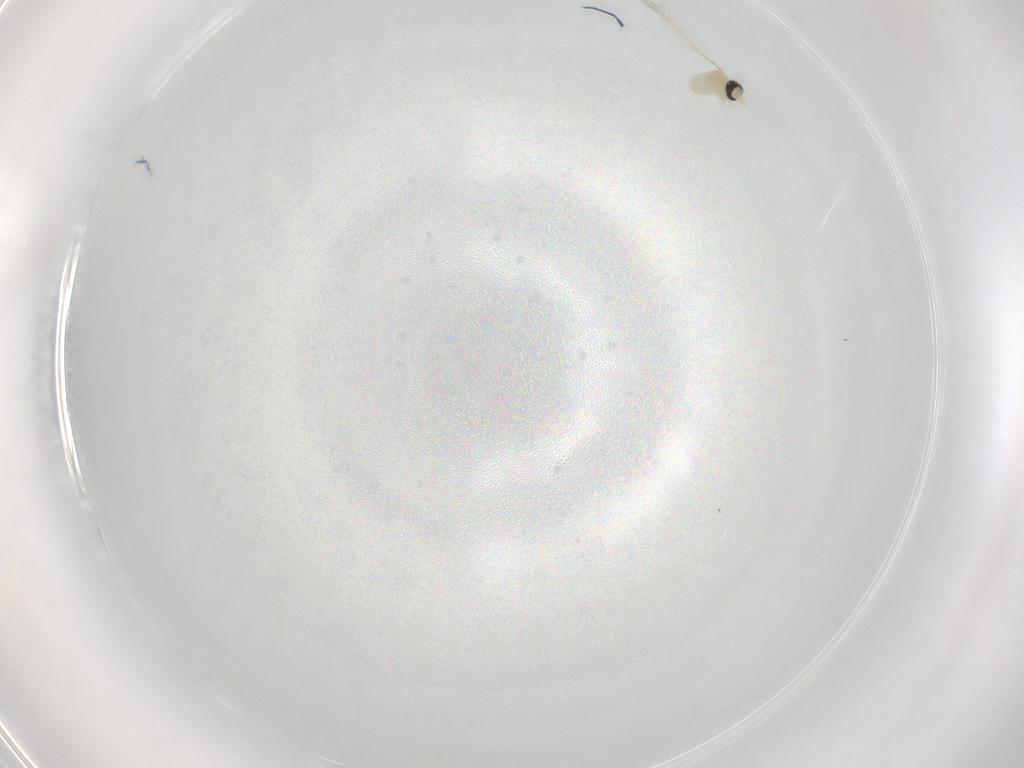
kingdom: Animalia
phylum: Arthropoda
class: Insecta
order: Diptera
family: Cecidomyiidae
